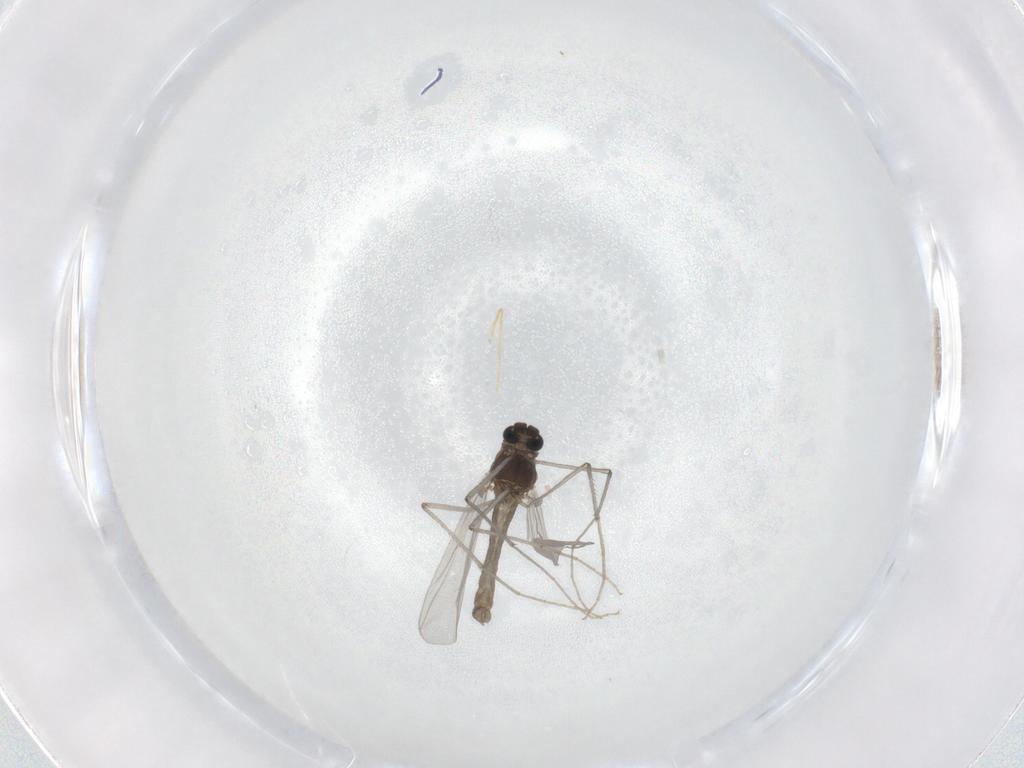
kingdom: Animalia
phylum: Arthropoda
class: Insecta
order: Diptera
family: Chironomidae
